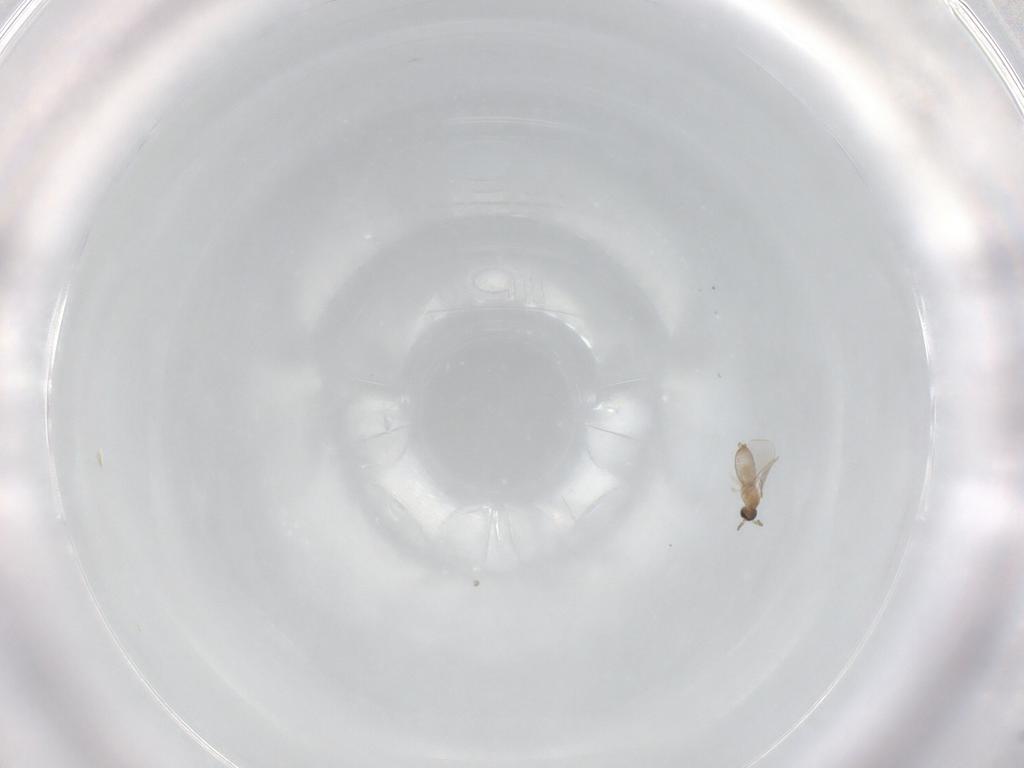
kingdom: Animalia
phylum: Arthropoda
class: Insecta
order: Diptera
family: Cecidomyiidae
